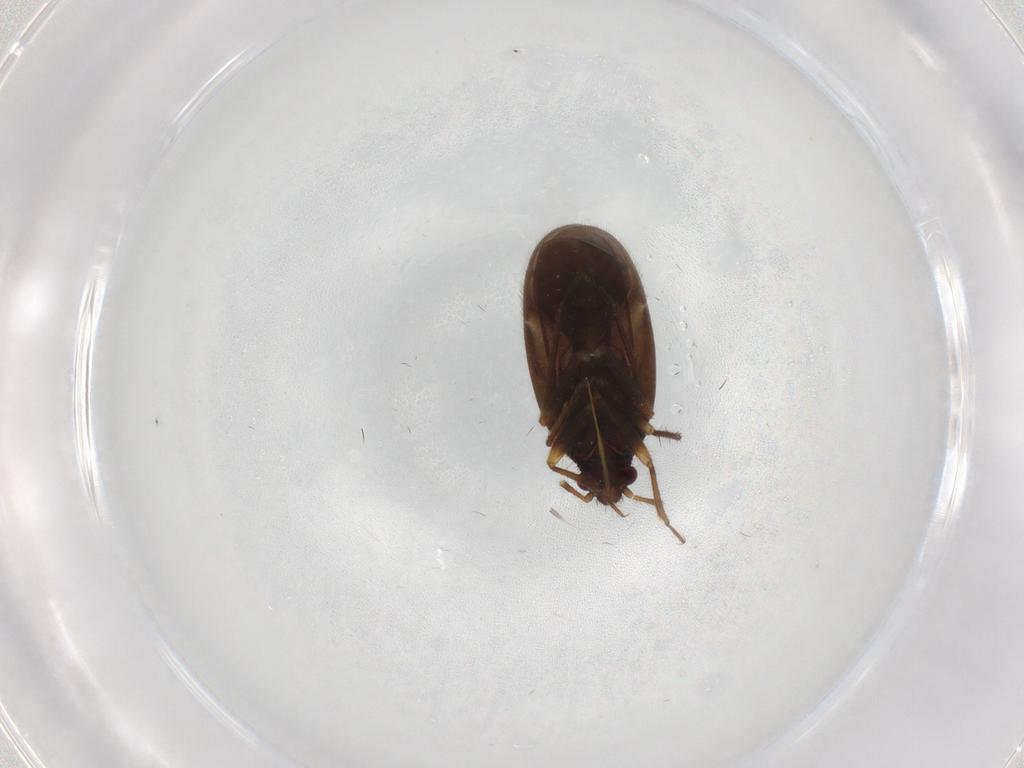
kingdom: Animalia
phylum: Arthropoda
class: Insecta
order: Hemiptera
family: Ceratocombidae
